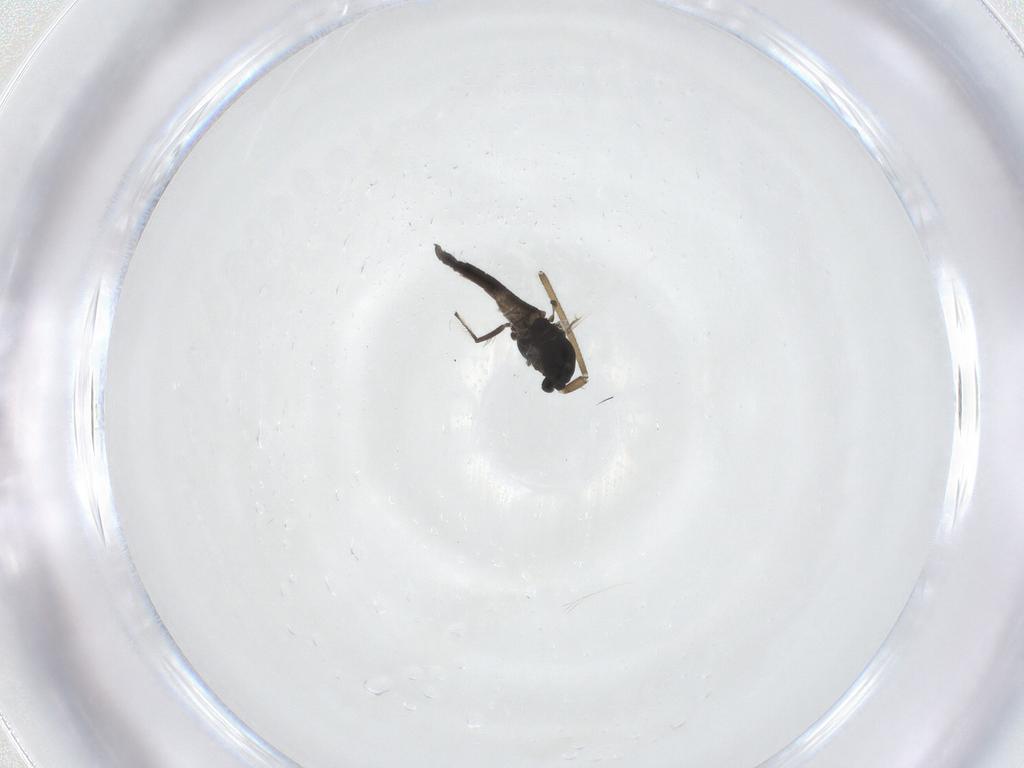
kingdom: Animalia
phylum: Arthropoda
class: Insecta
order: Diptera
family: Chironomidae
